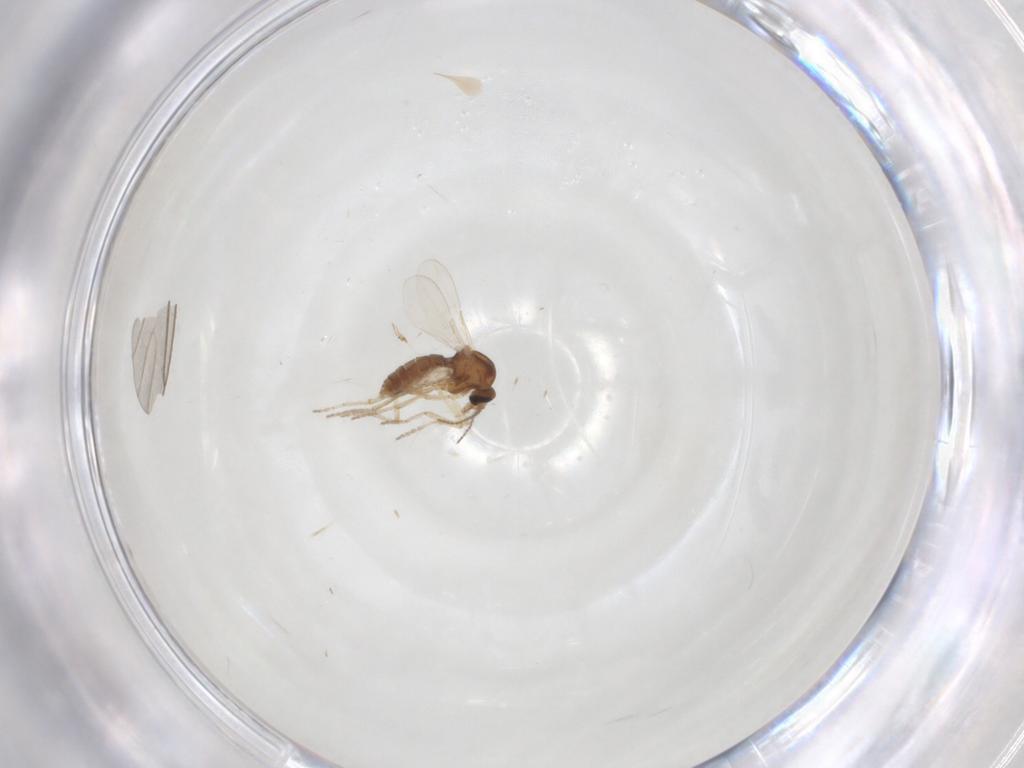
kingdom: Animalia
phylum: Arthropoda
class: Insecta
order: Diptera
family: Ceratopogonidae
